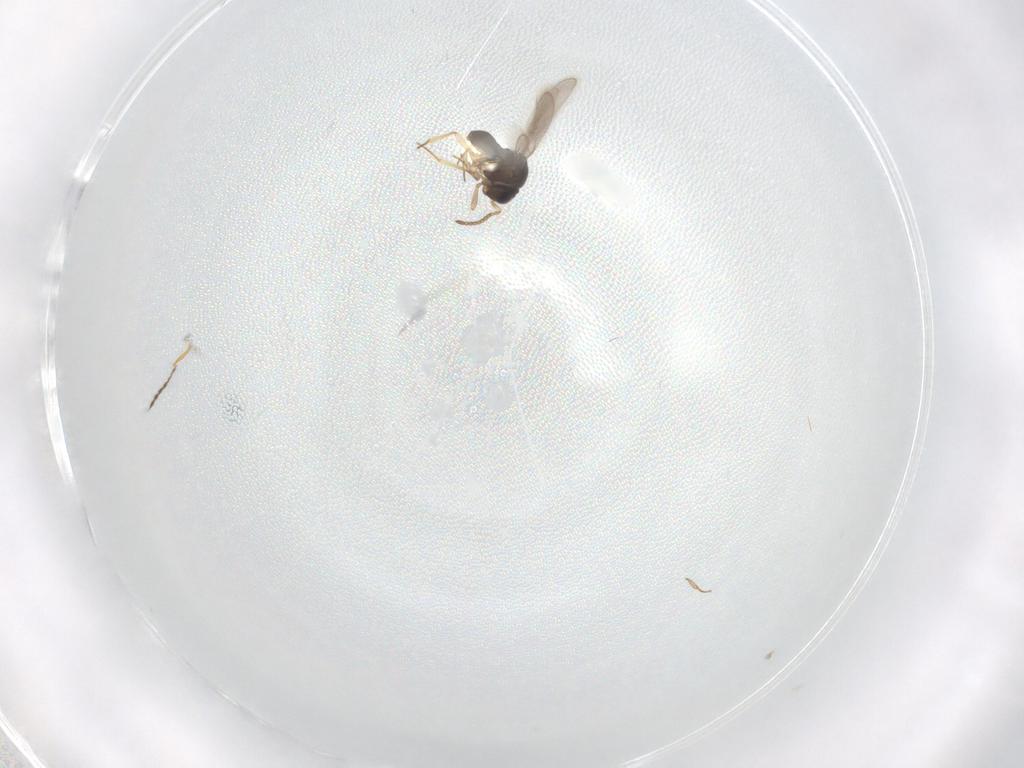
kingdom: Animalia
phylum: Arthropoda
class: Insecta
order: Hymenoptera
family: Scelionidae
